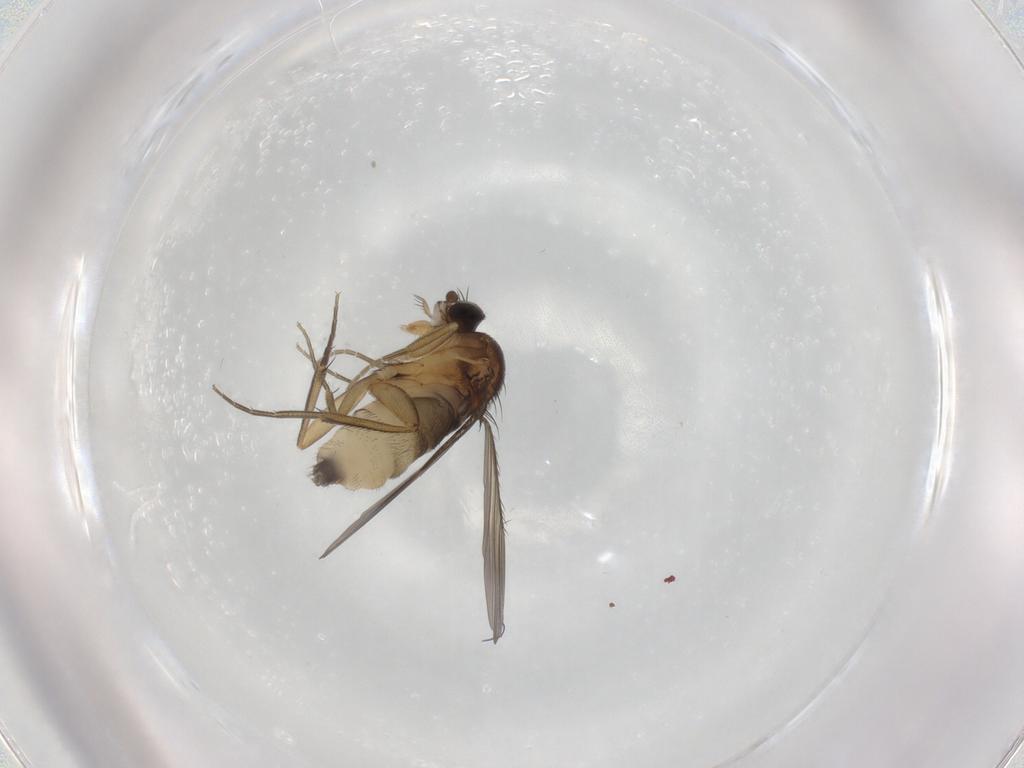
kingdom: Animalia
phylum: Arthropoda
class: Insecta
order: Diptera
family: Phoridae
